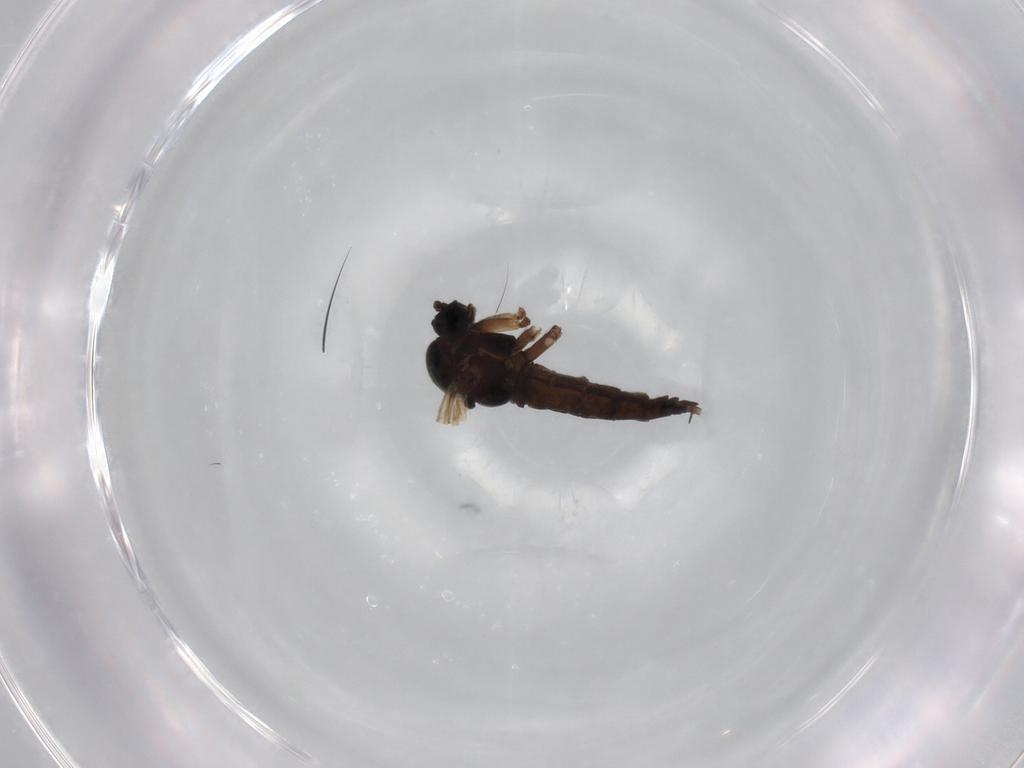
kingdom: Animalia
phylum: Arthropoda
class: Insecta
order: Diptera
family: Polleniidae
